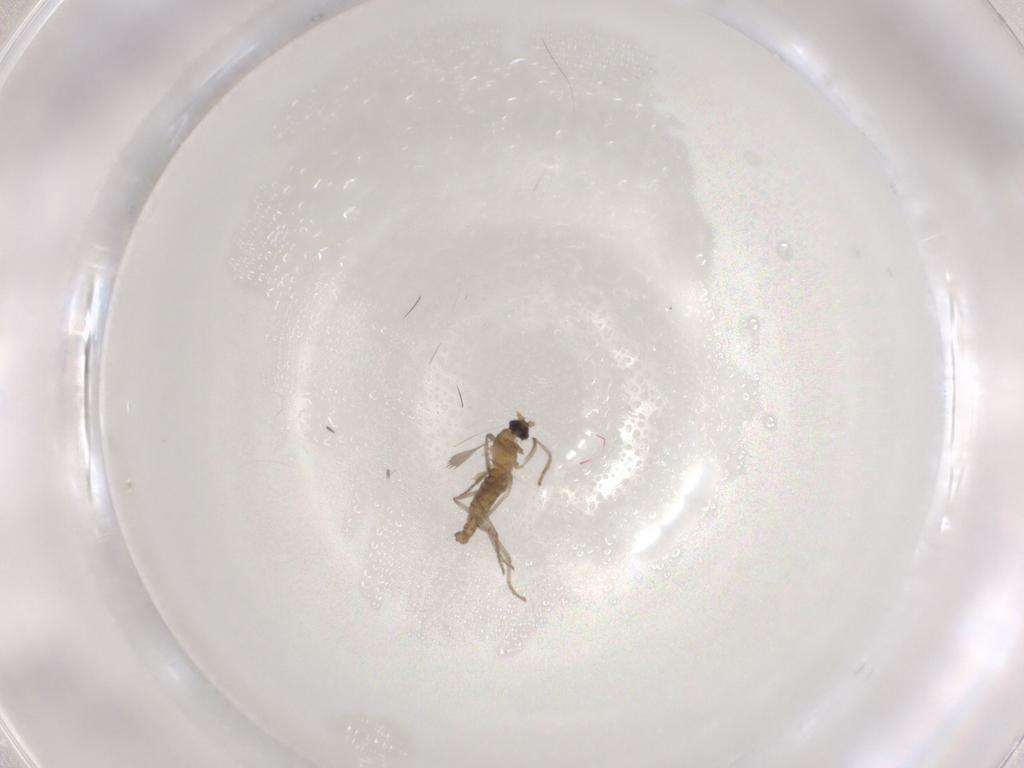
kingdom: Animalia
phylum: Arthropoda
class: Insecta
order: Diptera
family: Cecidomyiidae
